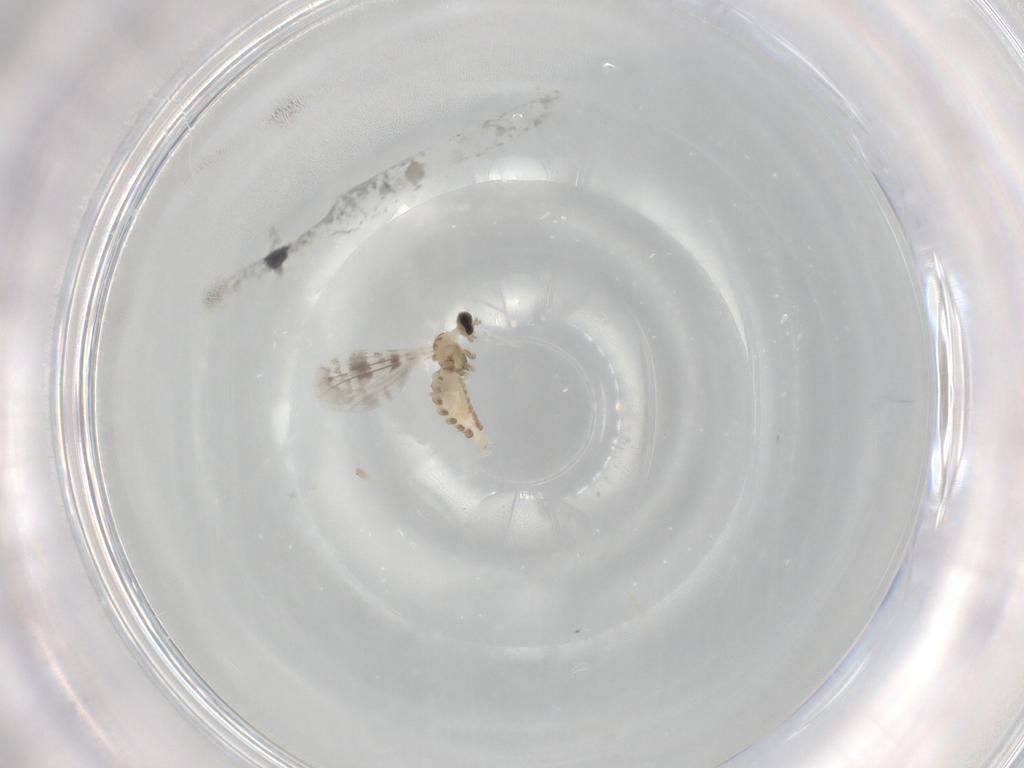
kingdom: Animalia
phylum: Arthropoda
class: Insecta
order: Diptera
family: Cecidomyiidae
